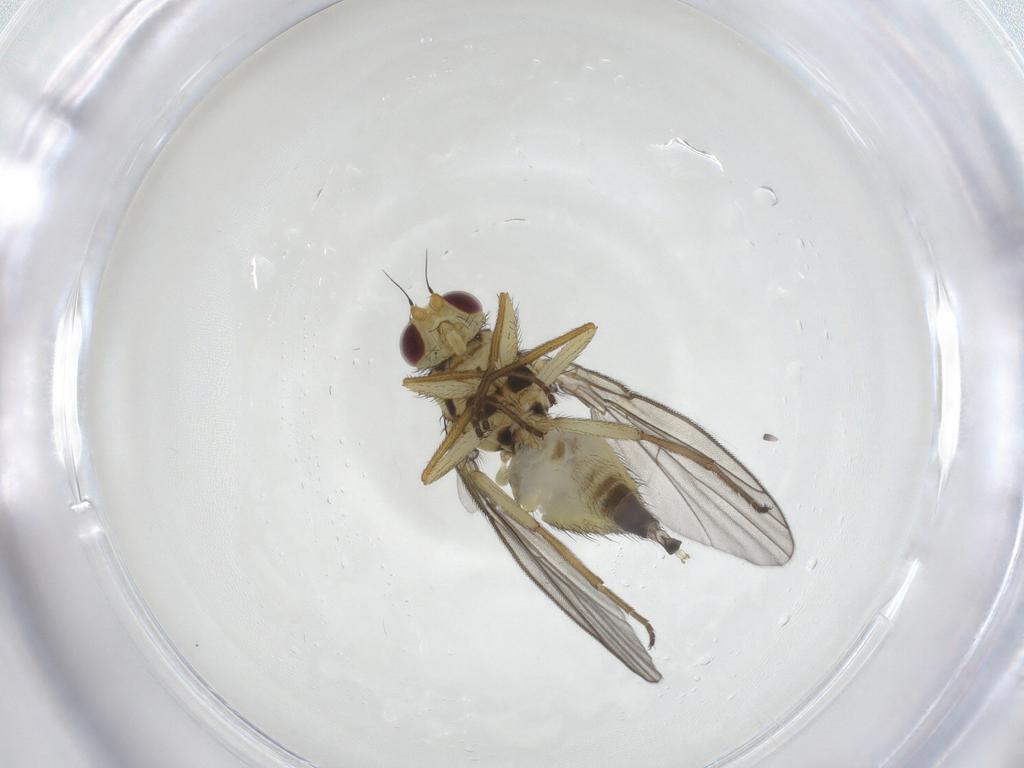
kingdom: Animalia
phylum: Arthropoda
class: Insecta
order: Diptera
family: Agromyzidae
